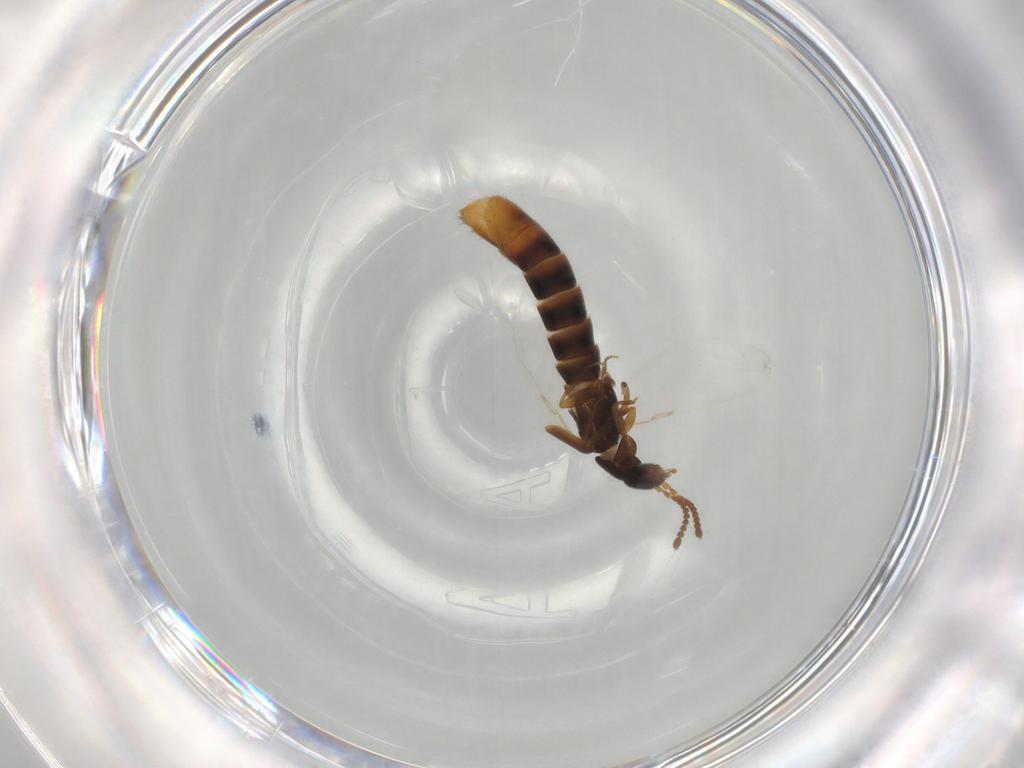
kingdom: Animalia
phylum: Arthropoda
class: Insecta
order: Coleoptera
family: Staphylinidae
